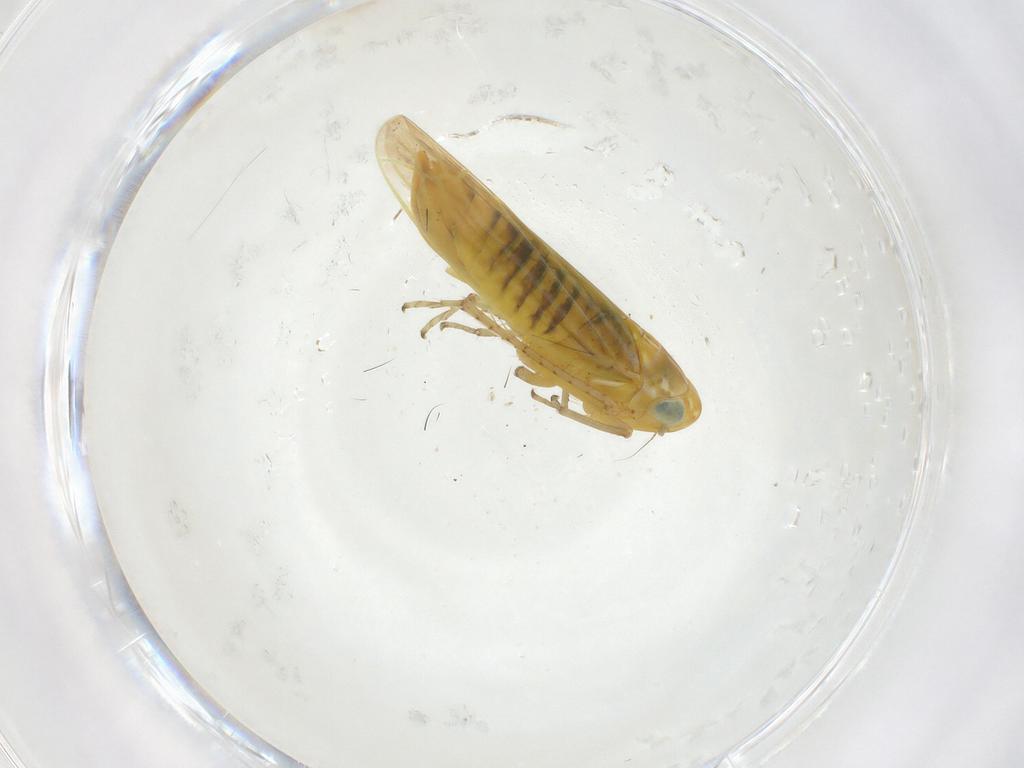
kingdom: Animalia
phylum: Arthropoda
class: Insecta
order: Hemiptera
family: Cicadellidae
